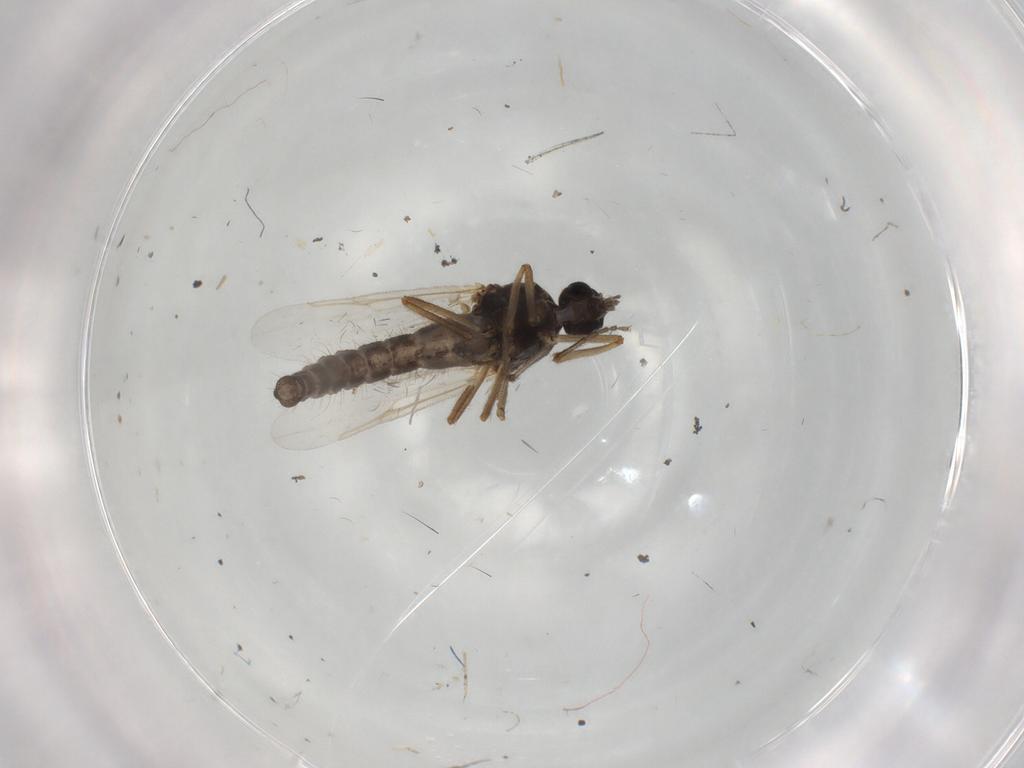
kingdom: Animalia
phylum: Arthropoda
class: Insecta
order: Diptera
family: Ceratopogonidae
